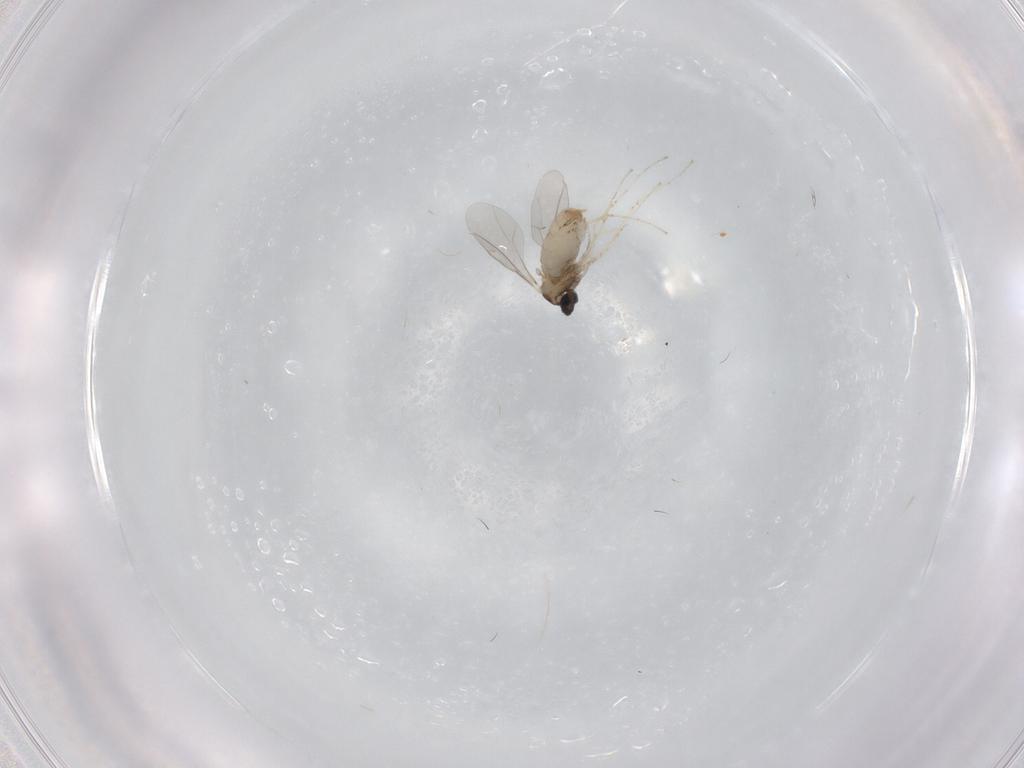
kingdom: Animalia
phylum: Arthropoda
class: Insecta
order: Diptera
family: Cecidomyiidae
